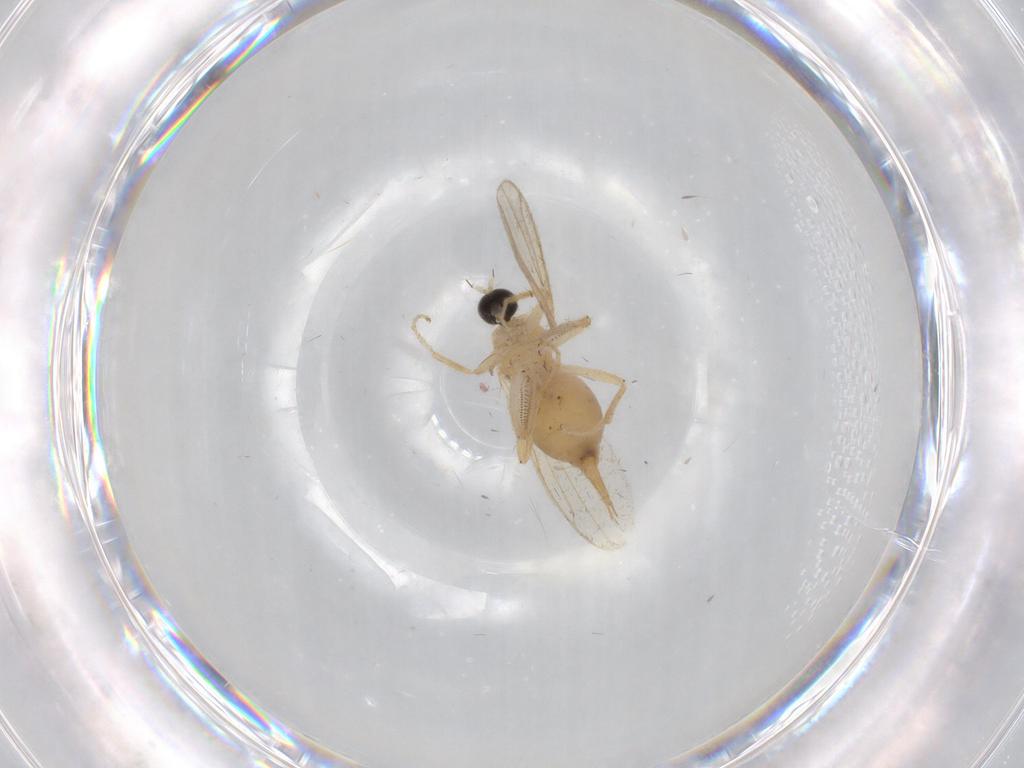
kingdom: Animalia
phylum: Arthropoda
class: Insecta
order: Diptera
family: Hybotidae
